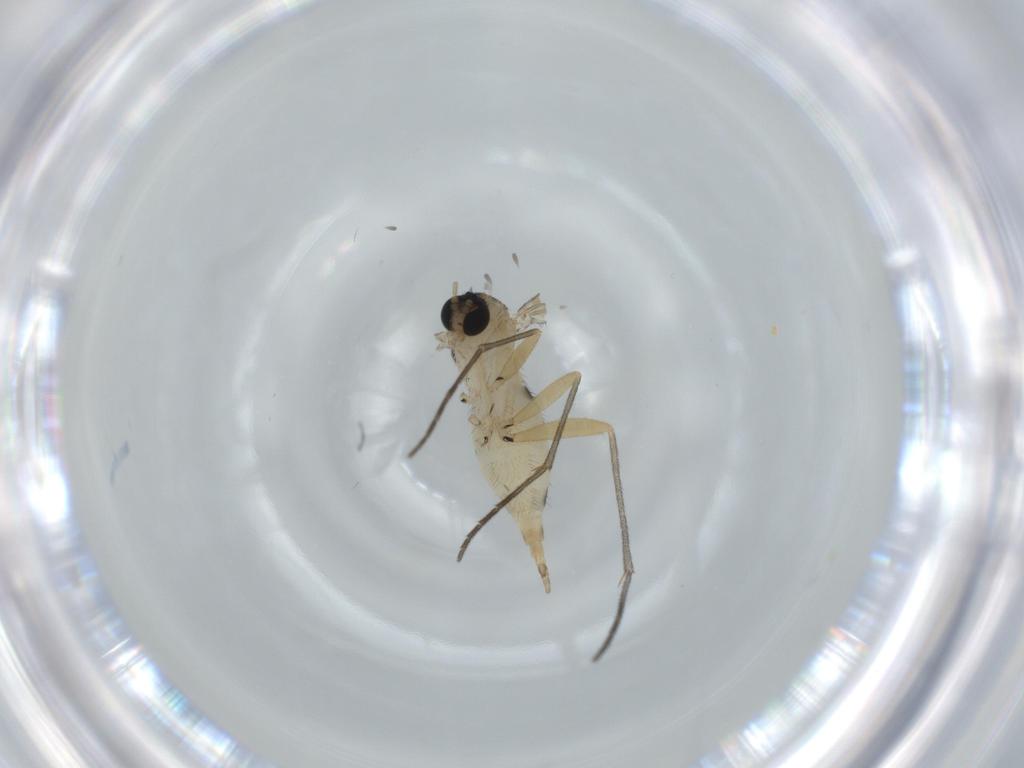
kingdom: Animalia
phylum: Arthropoda
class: Insecta
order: Diptera
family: Sciaridae
